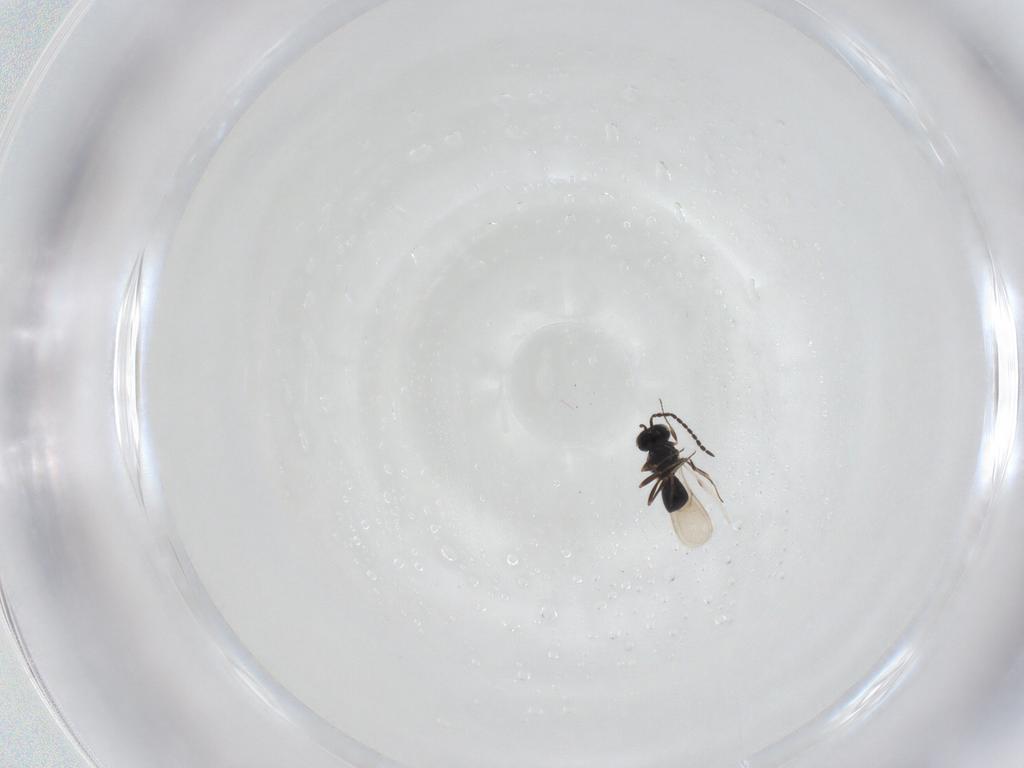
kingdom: Animalia
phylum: Arthropoda
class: Insecta
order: Hymenoptera
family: Scelionidae
